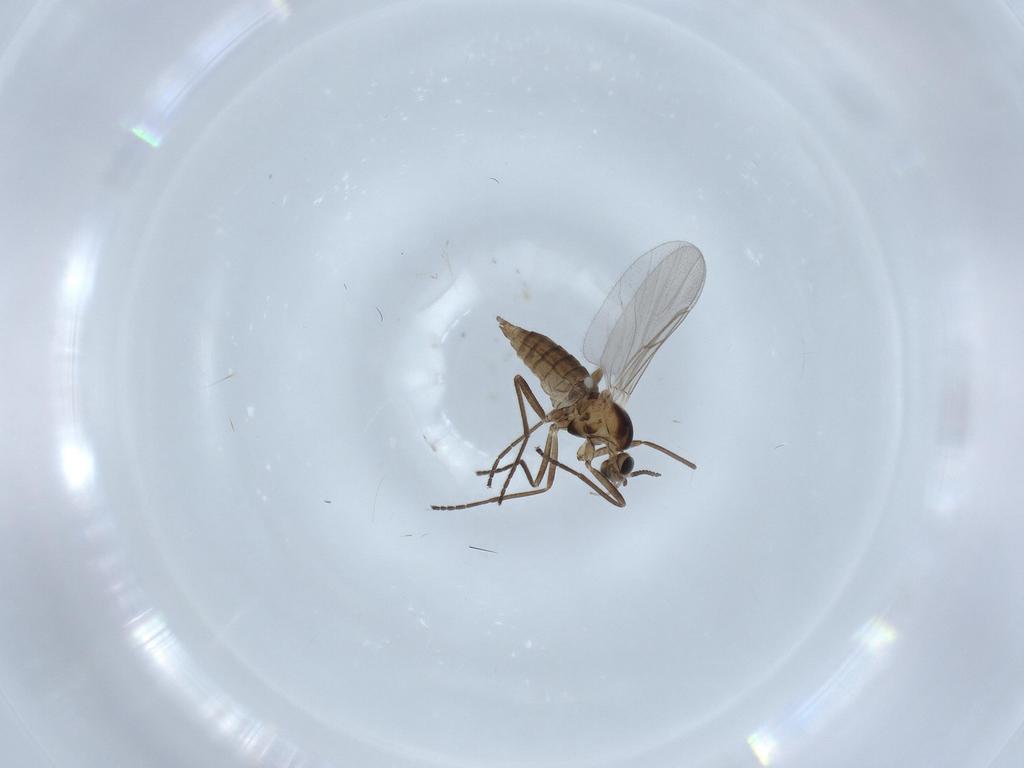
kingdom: Animalia
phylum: Arthropoda
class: Insecta
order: Diptera
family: Cecidomyiidae
